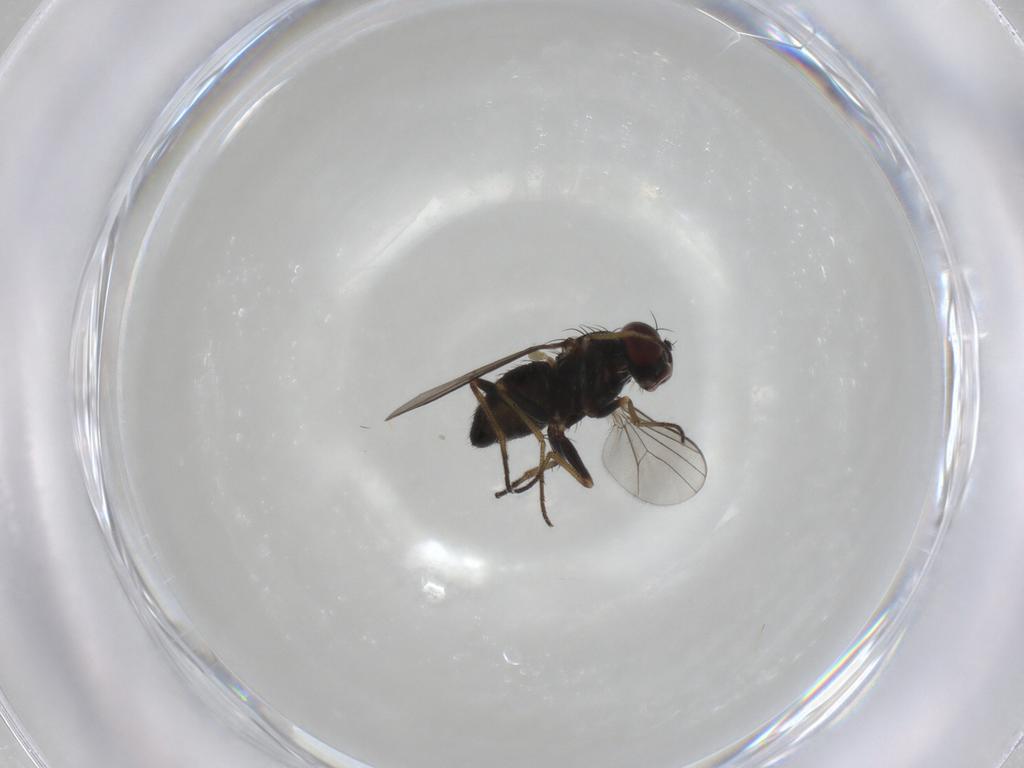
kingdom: Animalia
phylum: Arthropoda
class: Insecta
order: Diptera
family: Dolichopodidae
